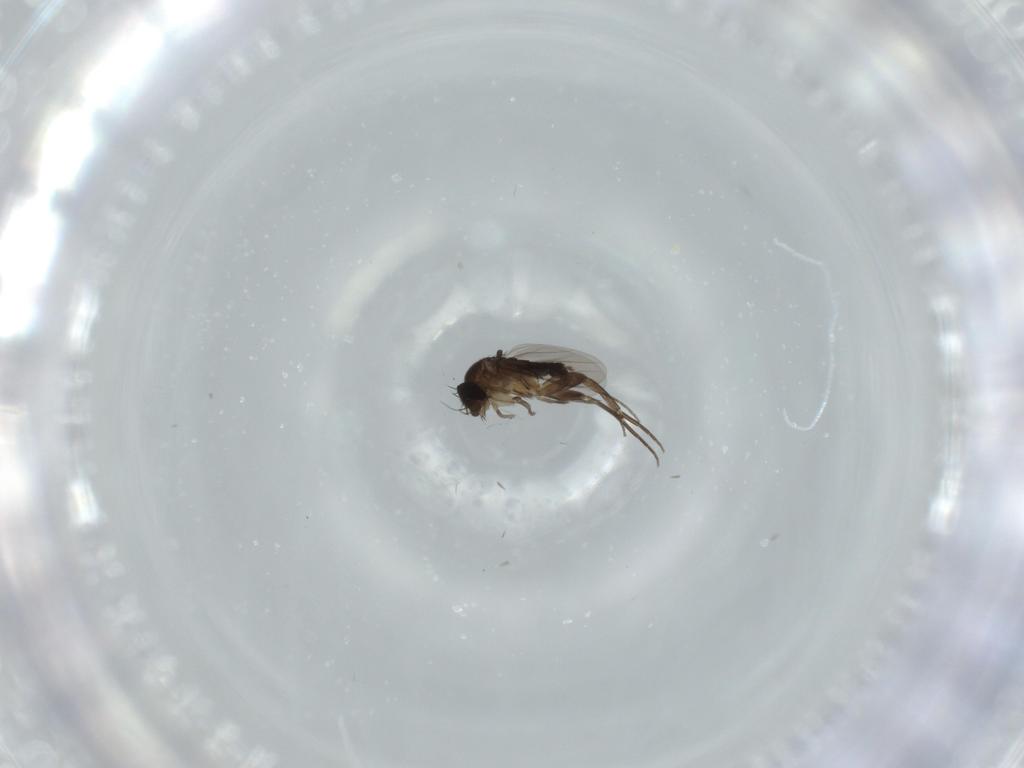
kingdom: Animalia
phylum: Arthropoda
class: Insecta
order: Diptera
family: Phoridae
